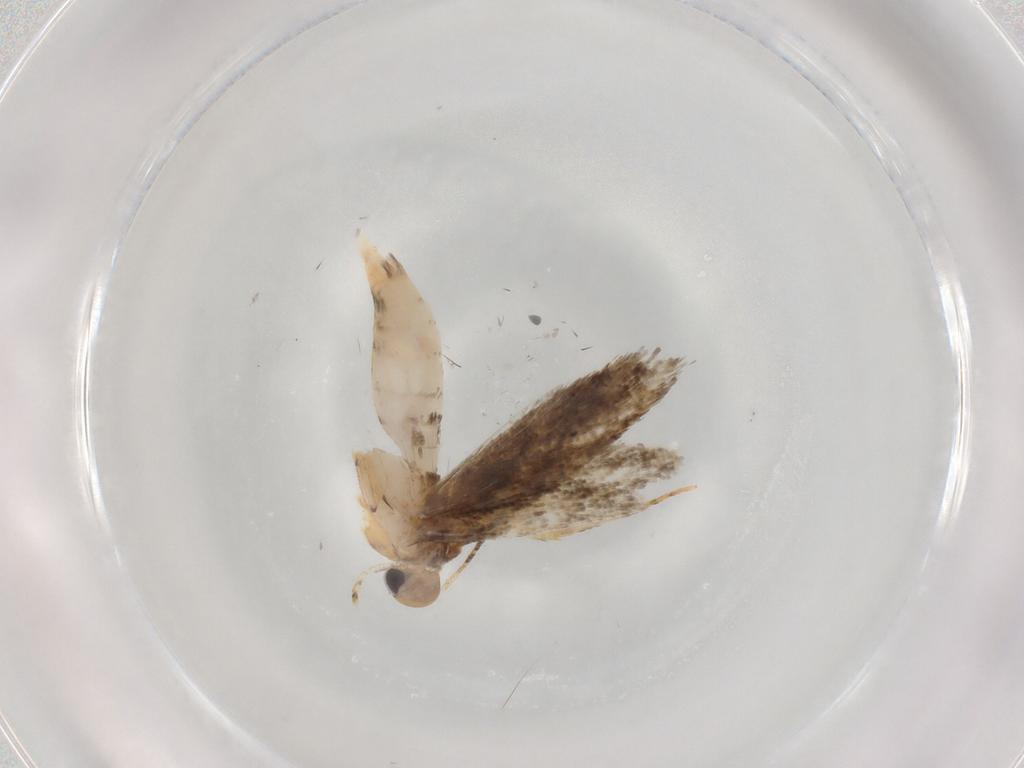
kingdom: Animalia
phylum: Arthropoda
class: Insecta
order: Lepidoptera
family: Gelechiidae
